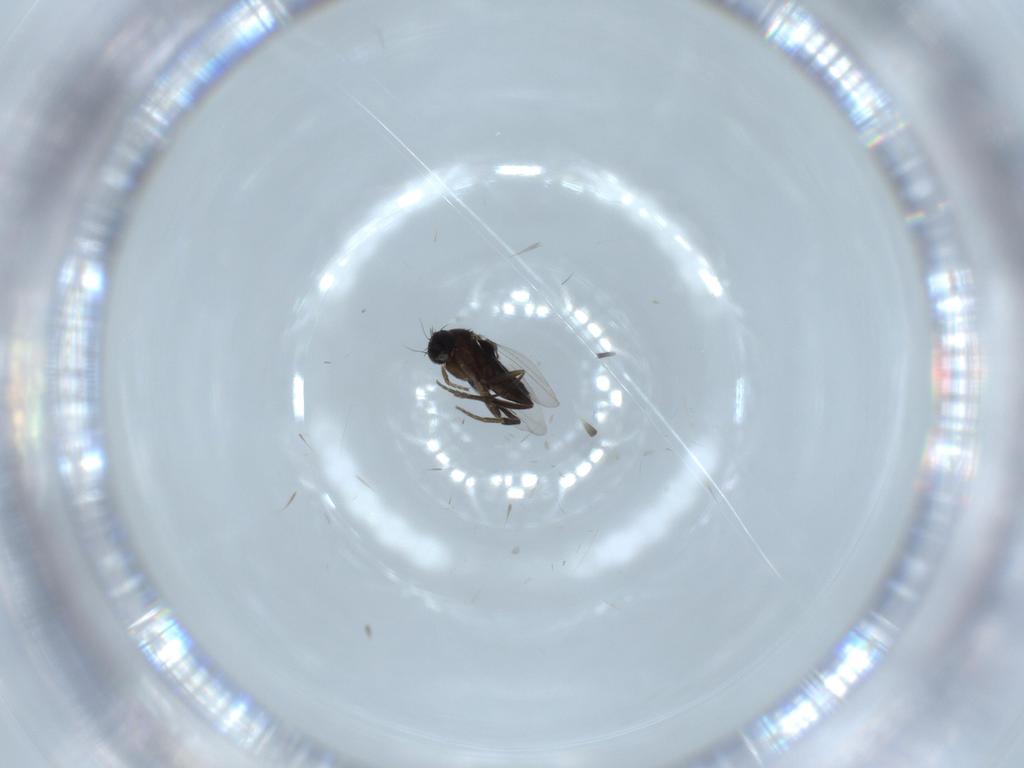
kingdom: Animalia
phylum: Arthropoda
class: Insecta
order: Diptera
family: Phoridae
